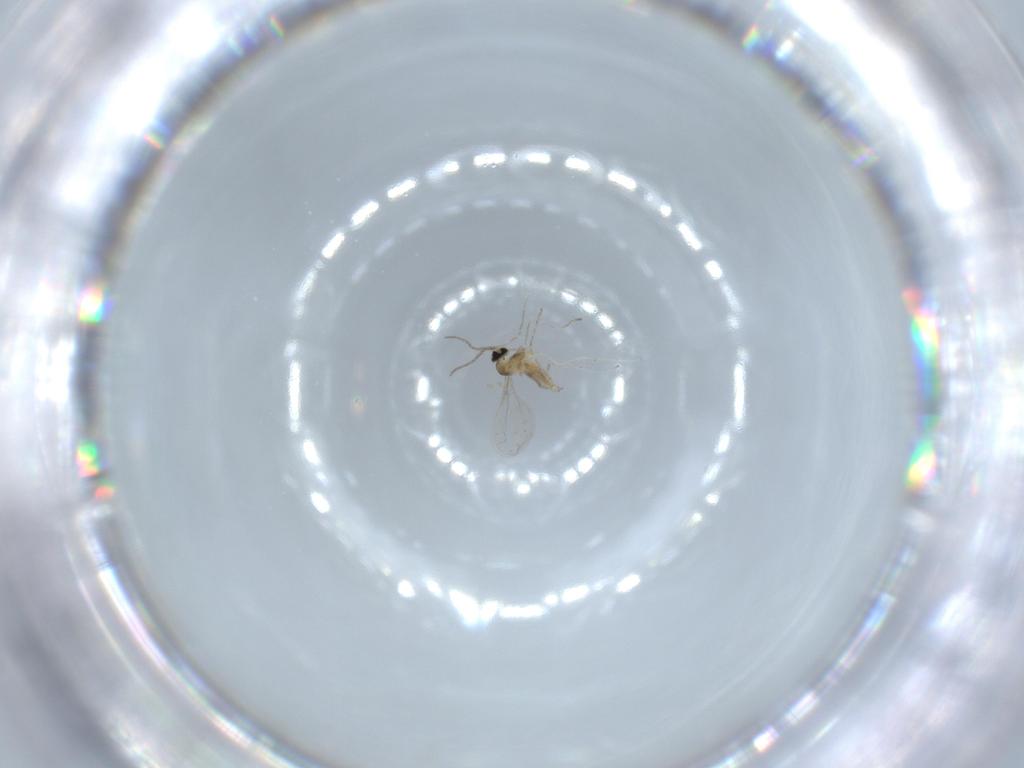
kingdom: Animalia
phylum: Arthropoda
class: Insecta
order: Diptera
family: Cecidomyiidae
